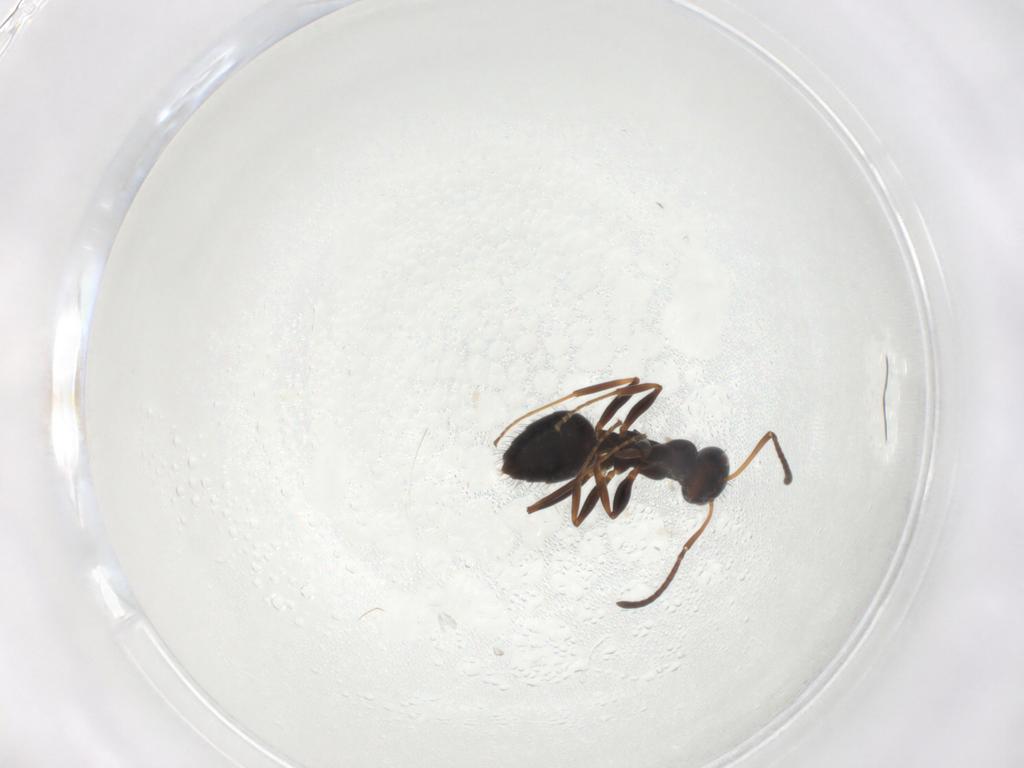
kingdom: Animalia
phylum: Arthropoda
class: Insecta
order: Hymenoptera
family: Formicidae
